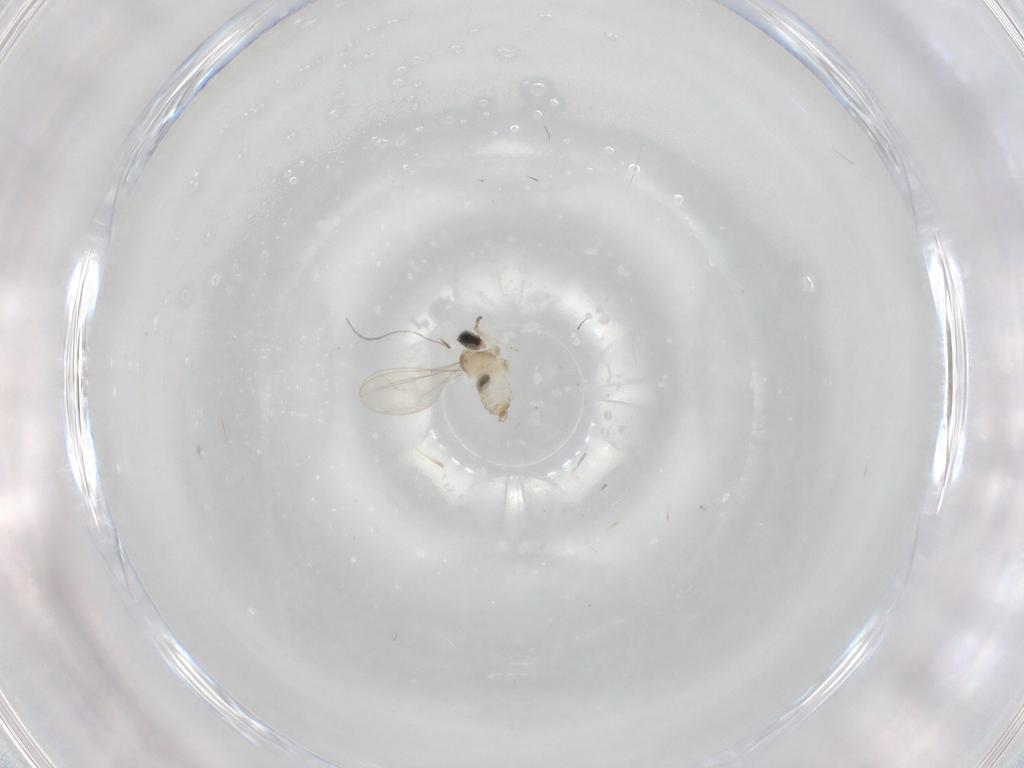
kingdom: Animalia
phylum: Arthropoda
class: Insecta
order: Diptera
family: Cecidomyiidae
